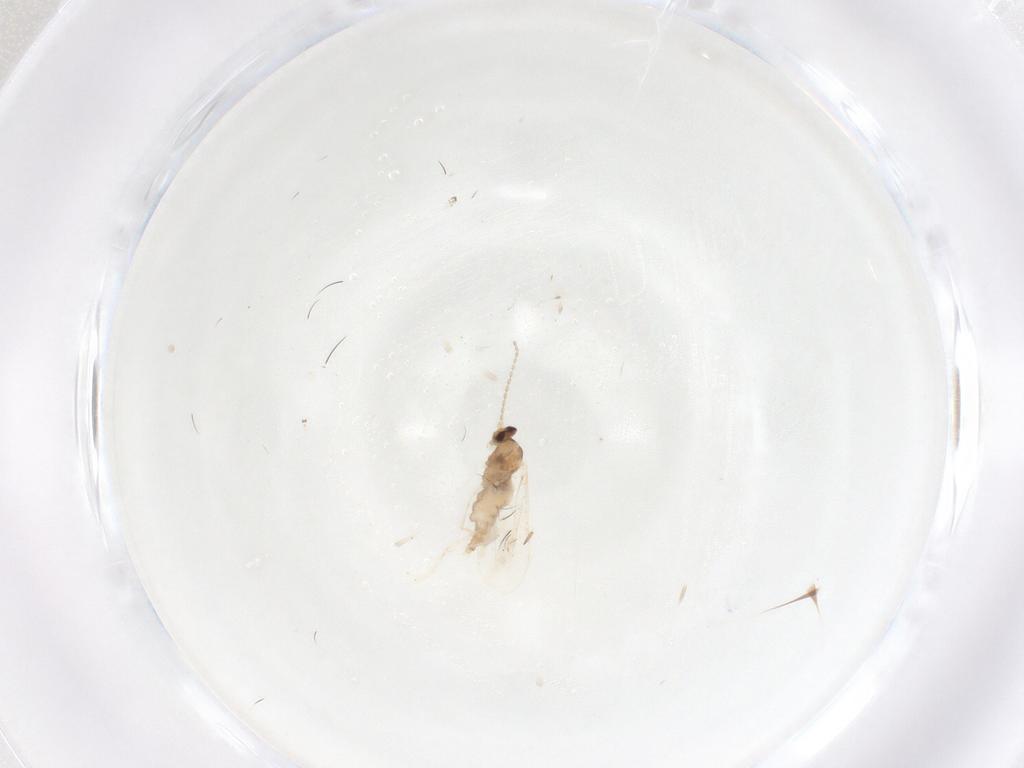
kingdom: Animalia
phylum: Arthropoda
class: Insecta
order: Diptera
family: Cecidomyiidae
